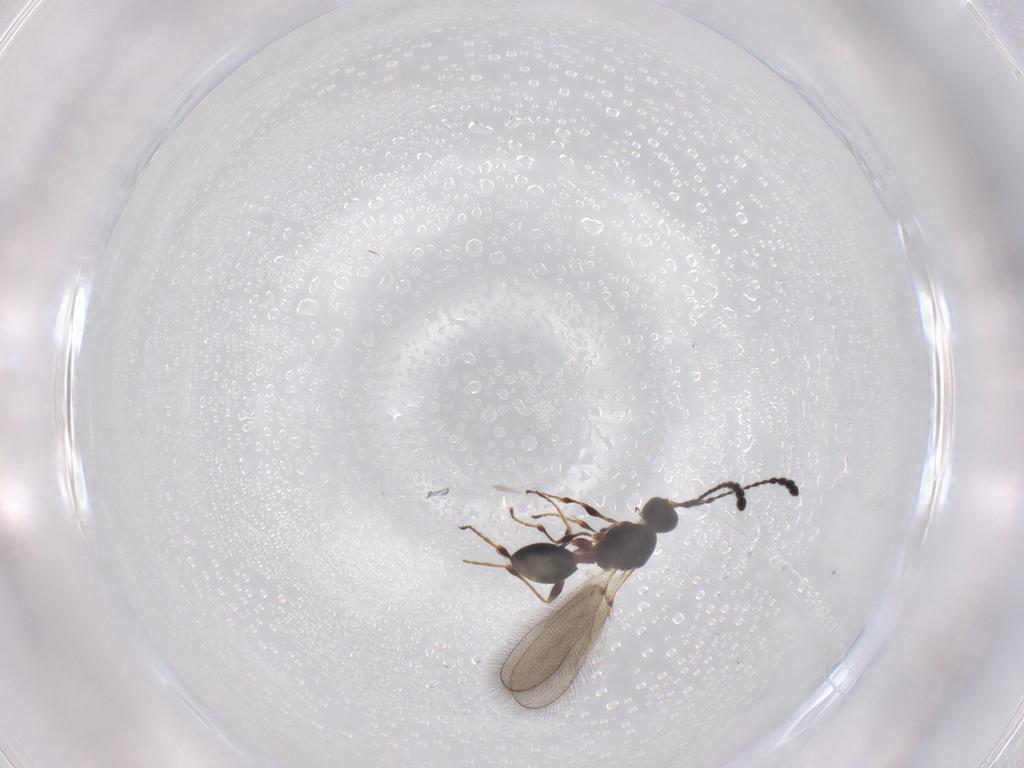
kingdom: Animalia
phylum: Arthropoda
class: Insecta
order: Hymenoptera
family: Diapriidae
